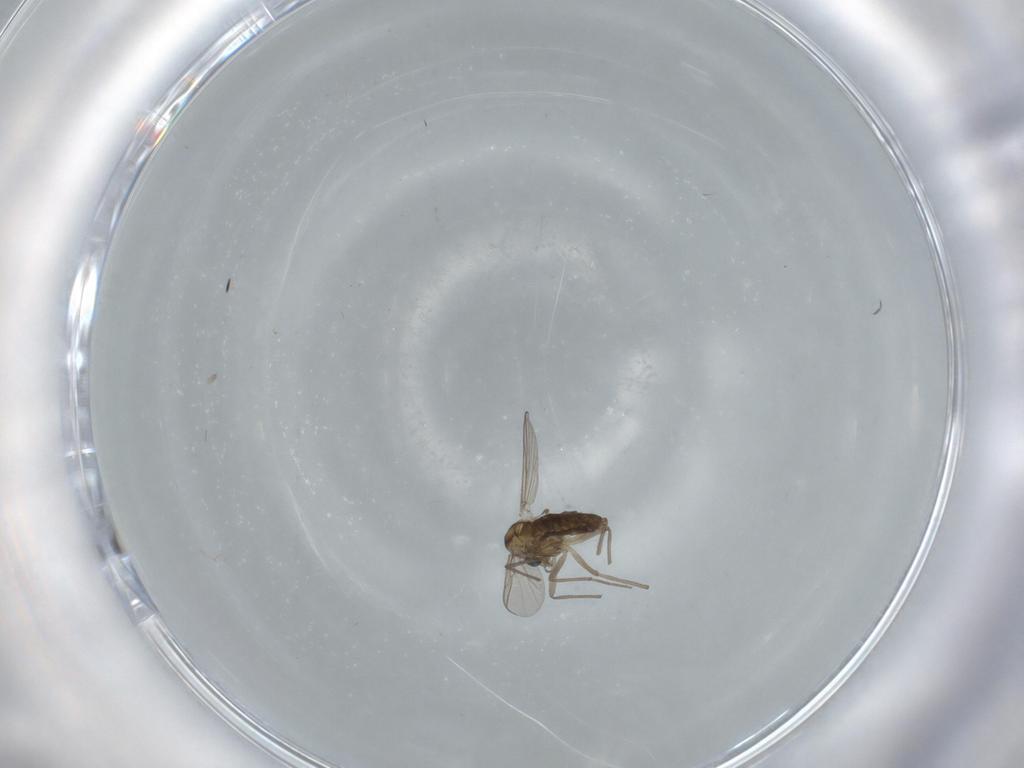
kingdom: Animalia
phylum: Arthropoda
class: Insecta
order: Diptera
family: Chironomidae
